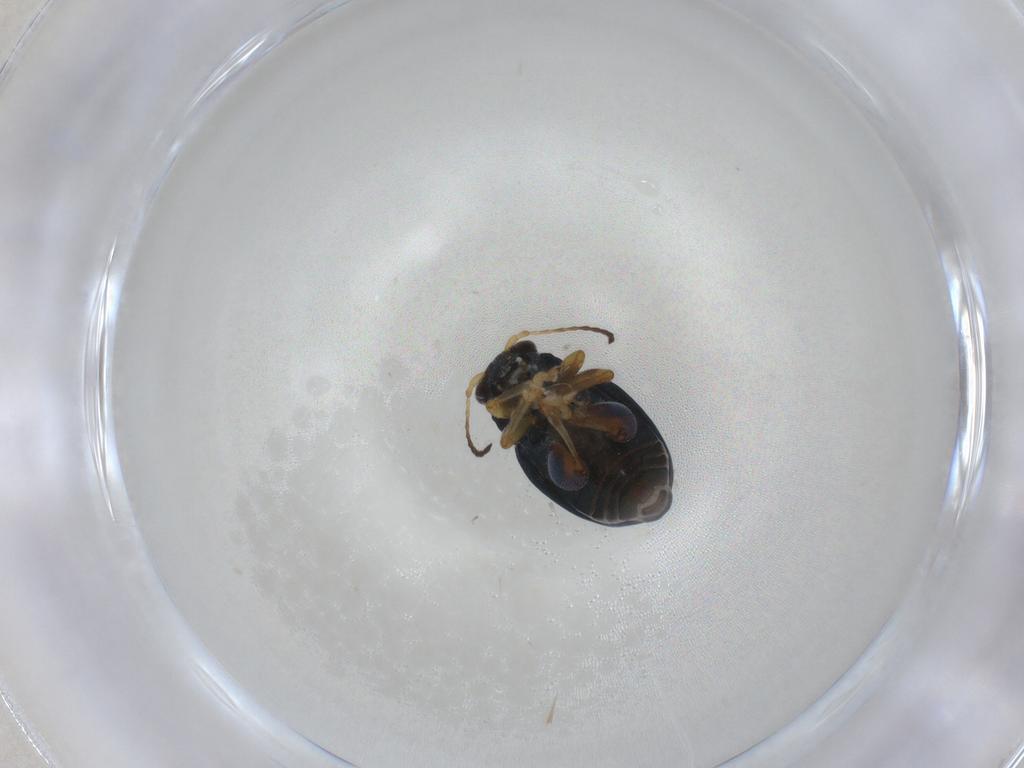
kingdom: Animalia
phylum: Arthropoda
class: Insecta
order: Coleoptera
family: Chrysomelidae
